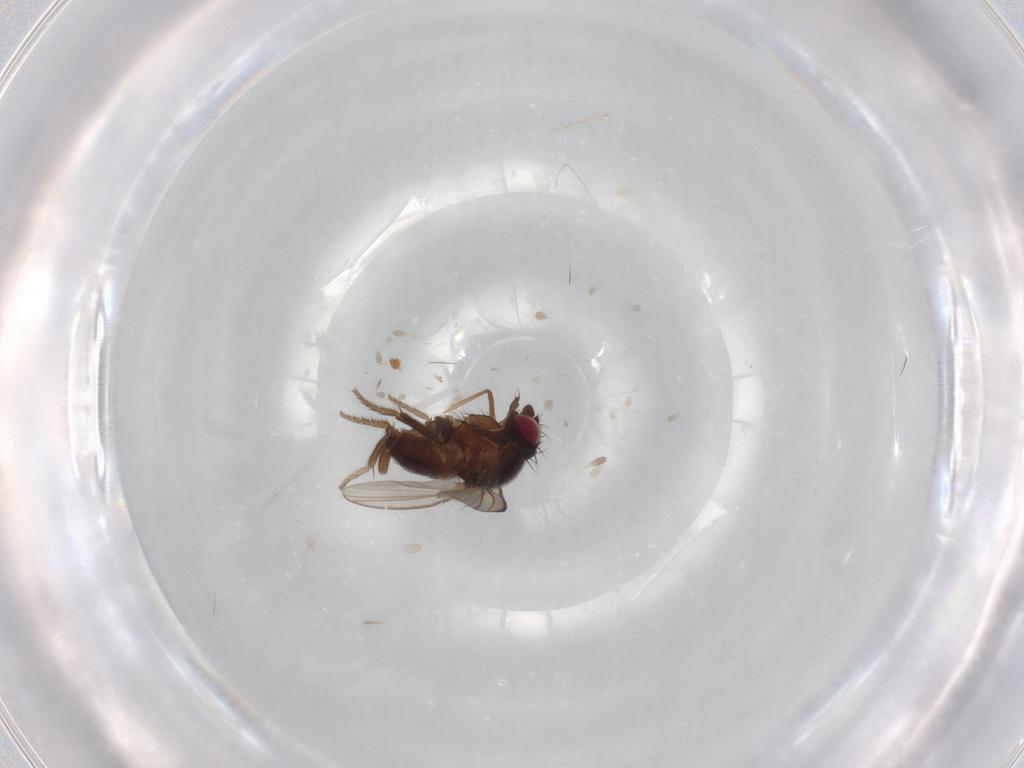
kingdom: Animalia
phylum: Arthropoda
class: Insecta
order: Diptera
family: Milichiidae
